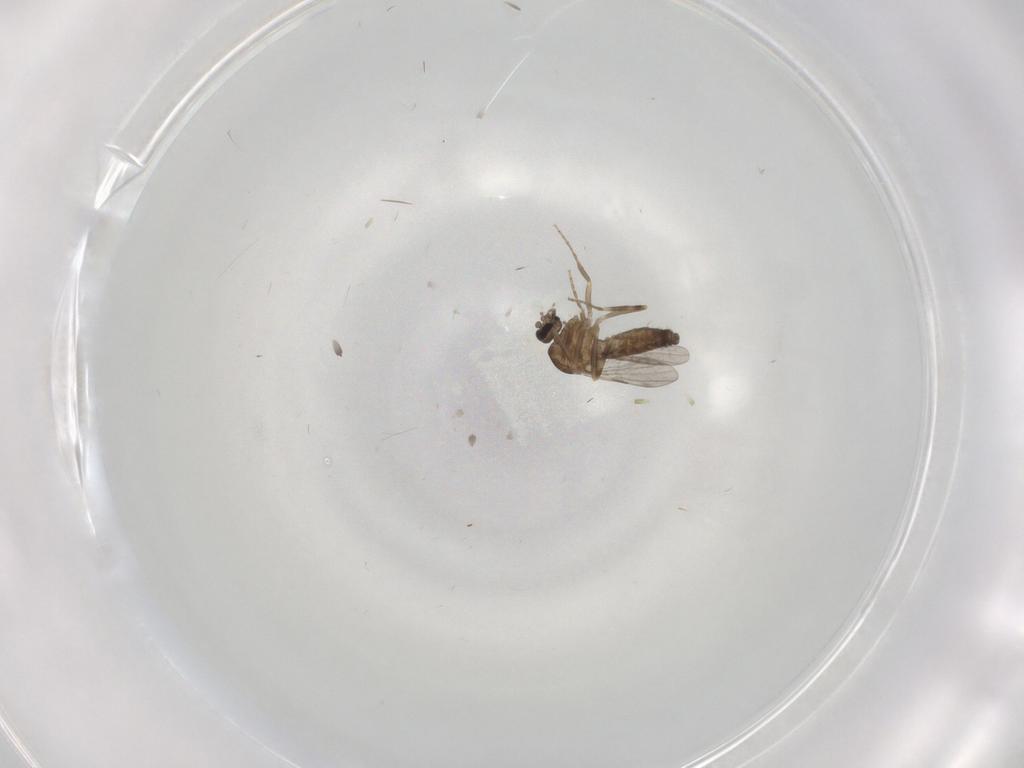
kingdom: Animalia
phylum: Arthropoda
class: Insecta
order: Diptera
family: Ceratopogonidae
